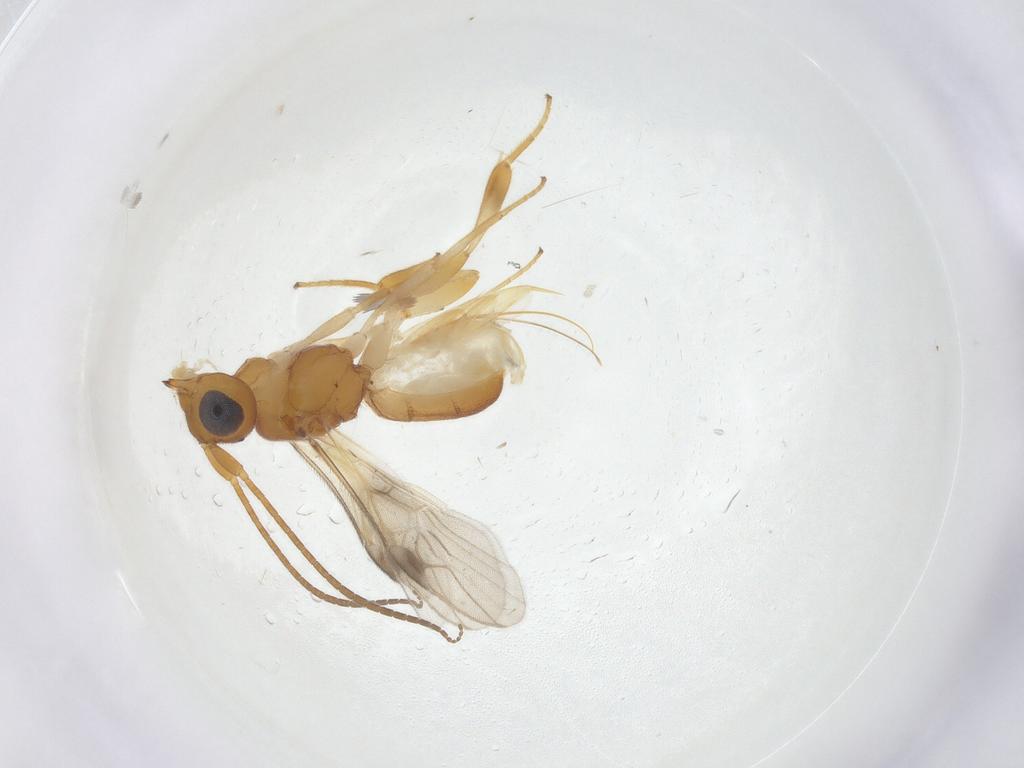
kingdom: Animalia
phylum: Arthropoda
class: Insecta
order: Hymenoptera
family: Braconidae
